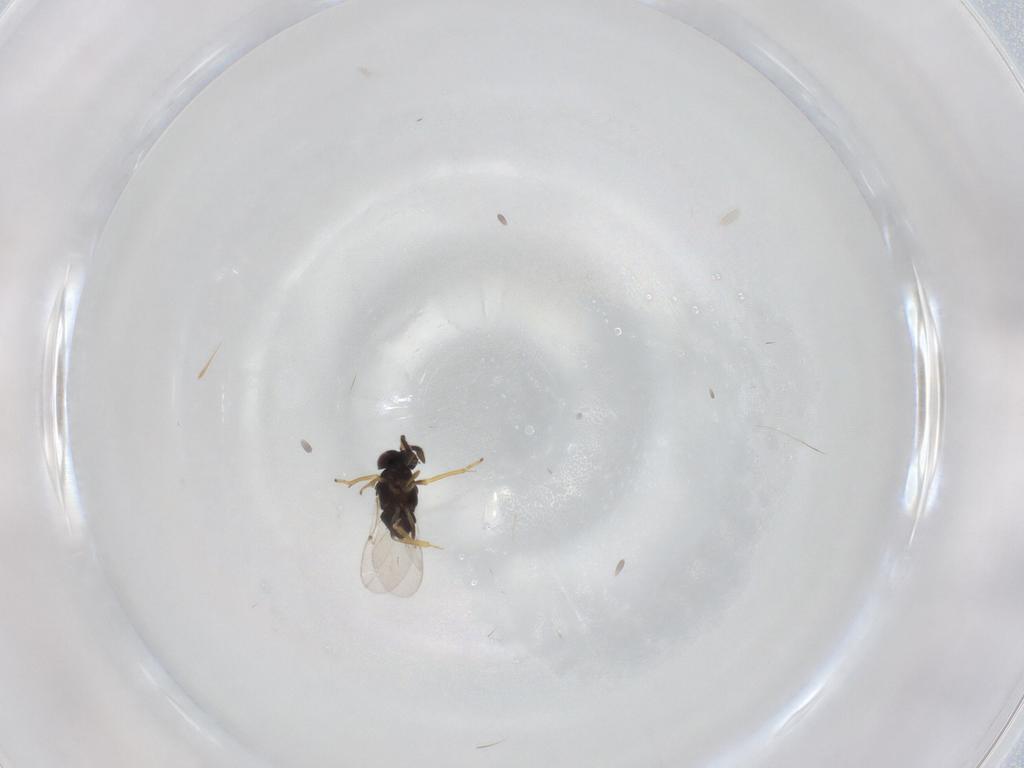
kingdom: Animalia
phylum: Arthropoda
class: Insecta
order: Hymenoptera
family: Scelionidae
